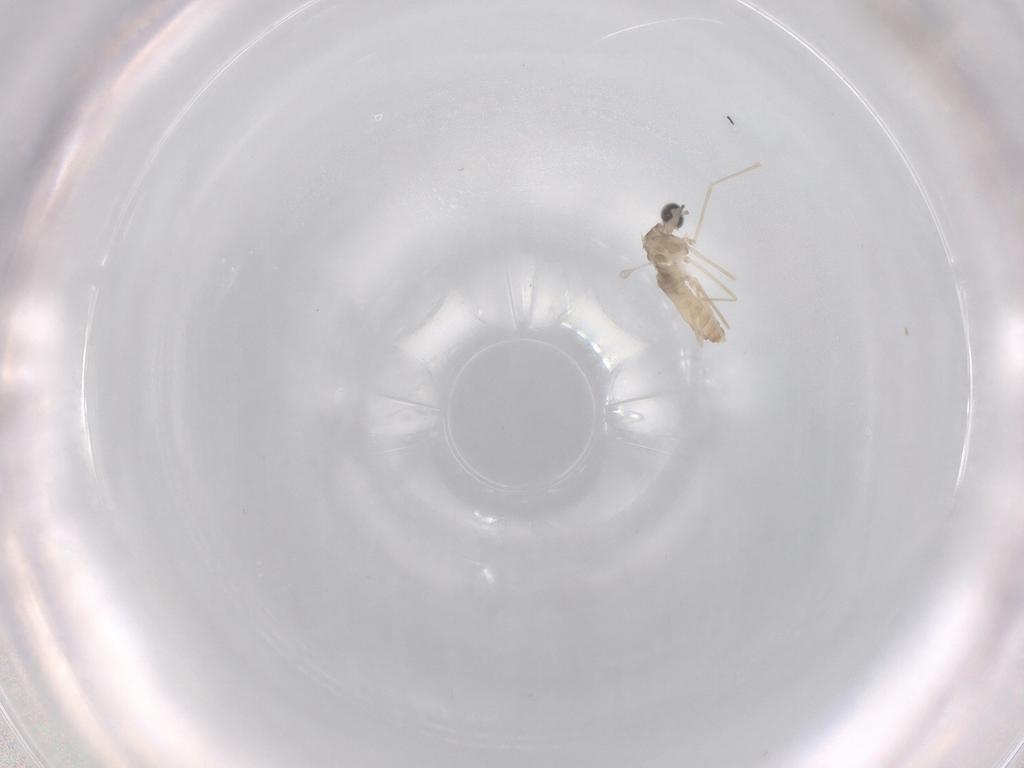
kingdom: Animalia
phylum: Arthropoda
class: Insecta
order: Diptera
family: Cecidomyiidae
